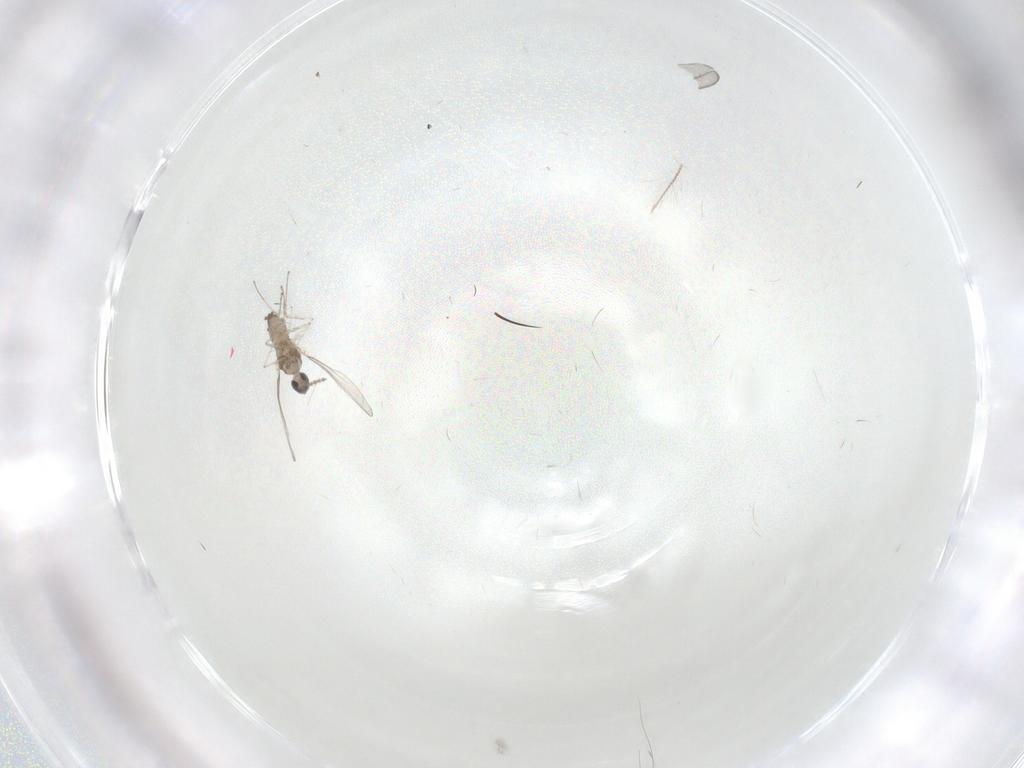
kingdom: Animalia
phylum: Arthropoda
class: Insecta
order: Diptera
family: Cecidomyiidae
